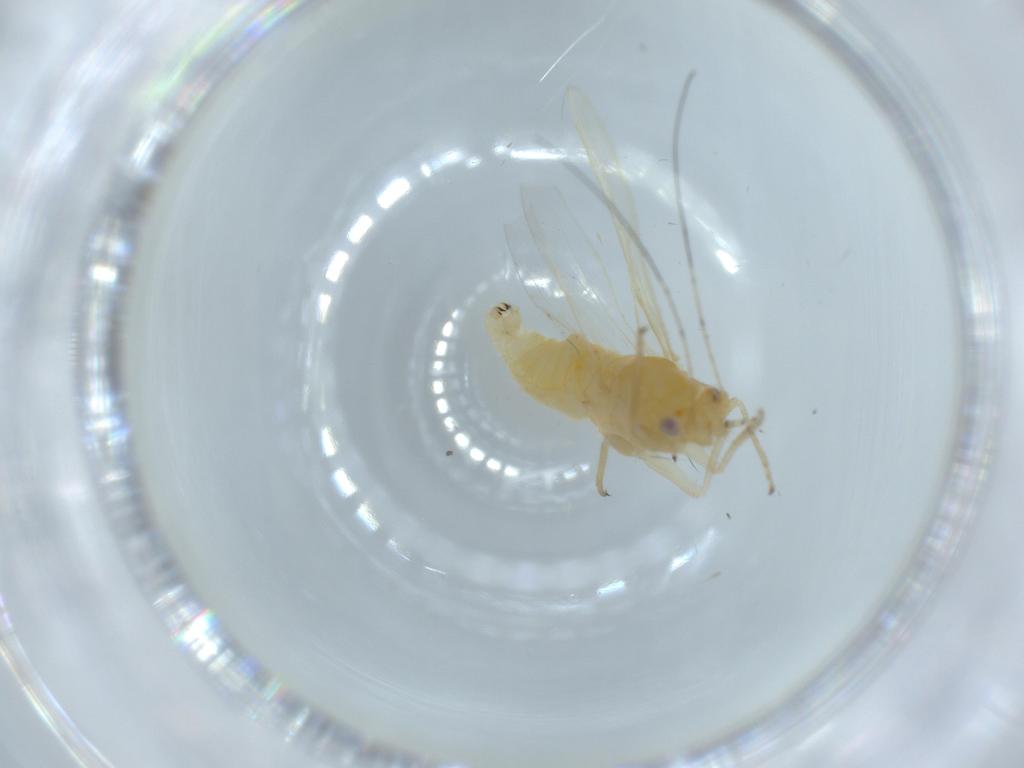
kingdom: Animalia
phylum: Arthropoda
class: Insecta
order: Hemiptera
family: Psyllidae
